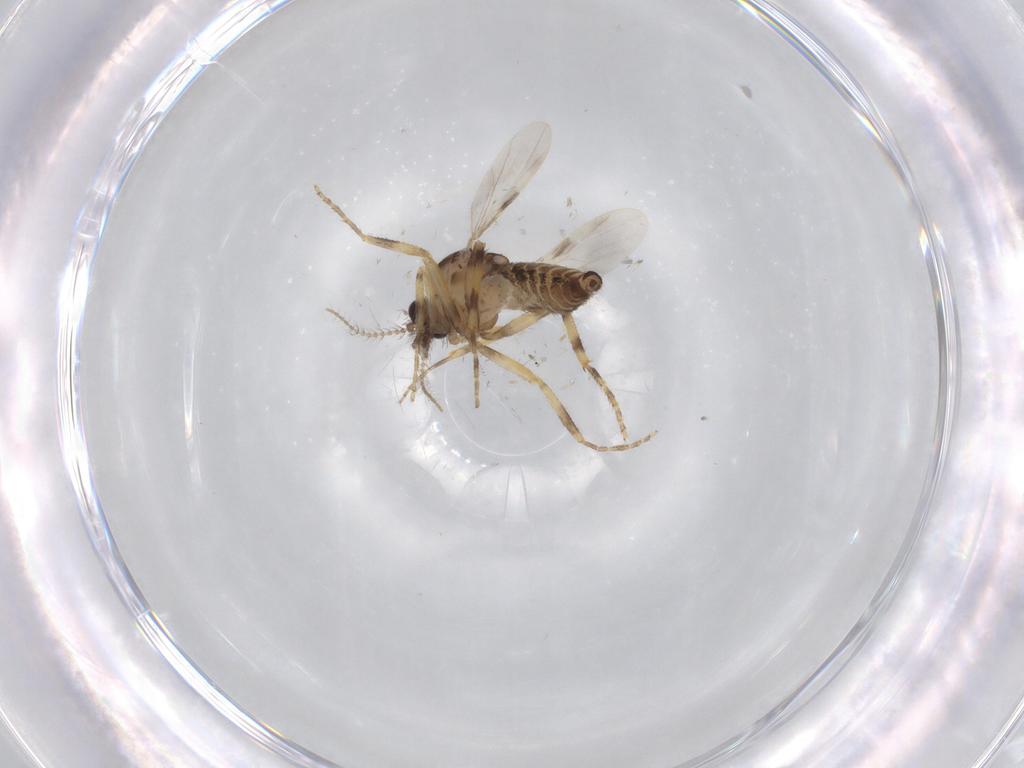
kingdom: Animalia
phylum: Arthropoda
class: Insecta
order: Diptera
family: Ceratopogonidae
